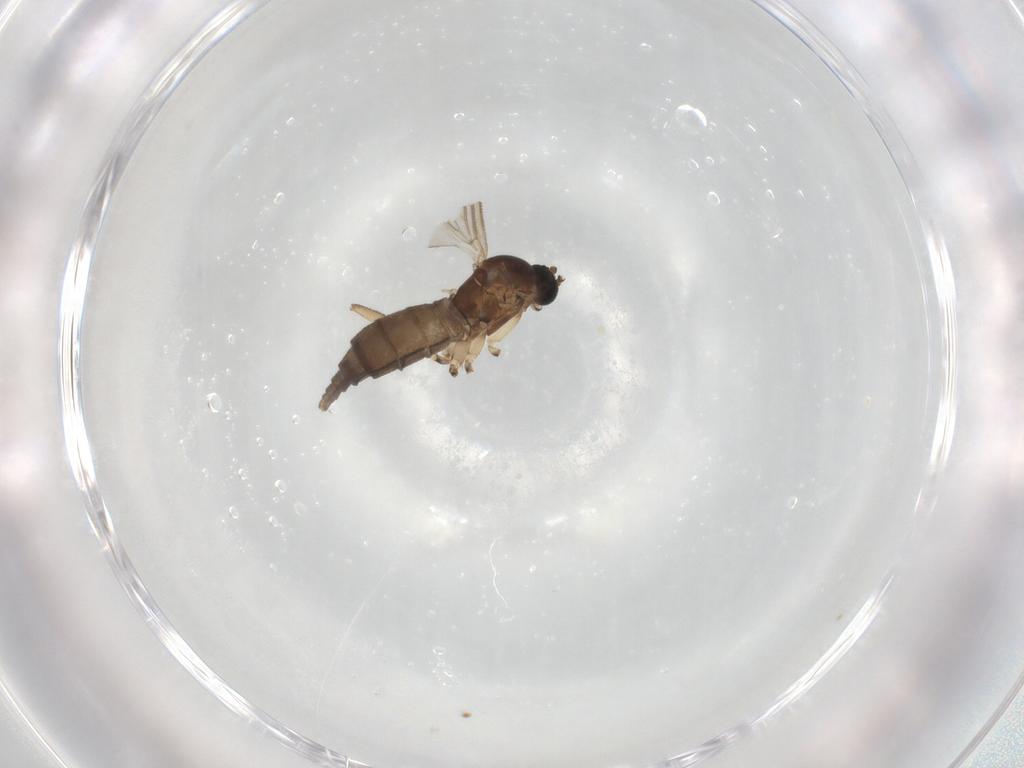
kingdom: Animalia
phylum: Arthropoda
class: Insecta
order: Diptera
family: Sciaridae
